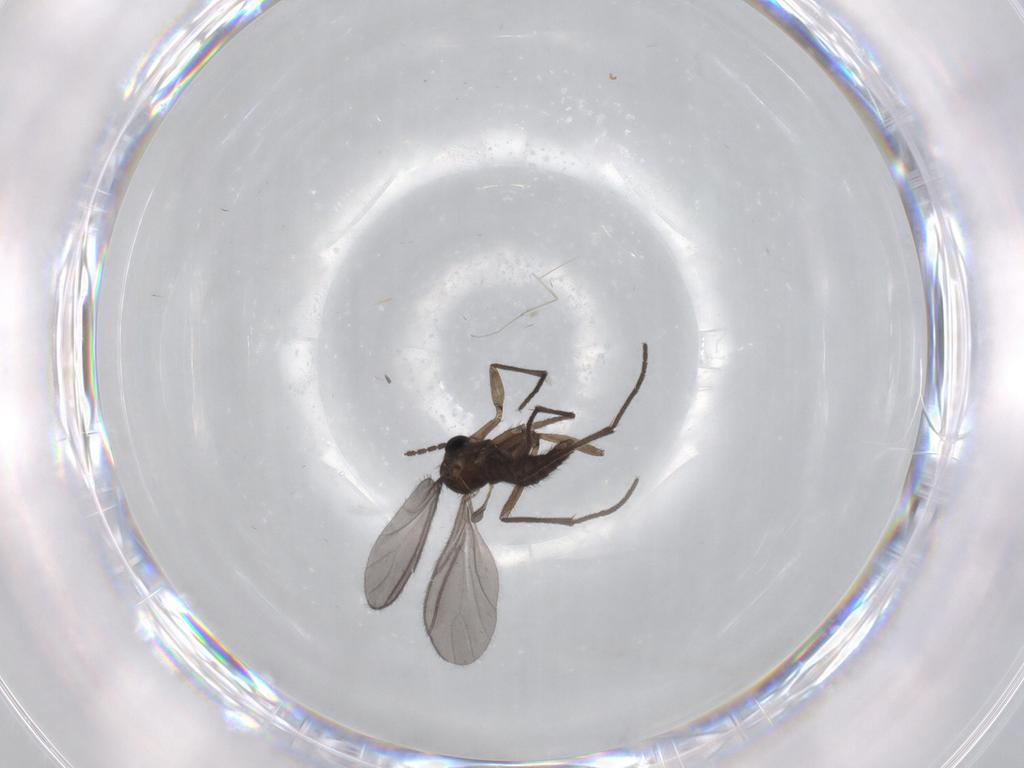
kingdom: Animalia
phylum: Arthropoda
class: Insecta
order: Diptera
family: Sciaridae
